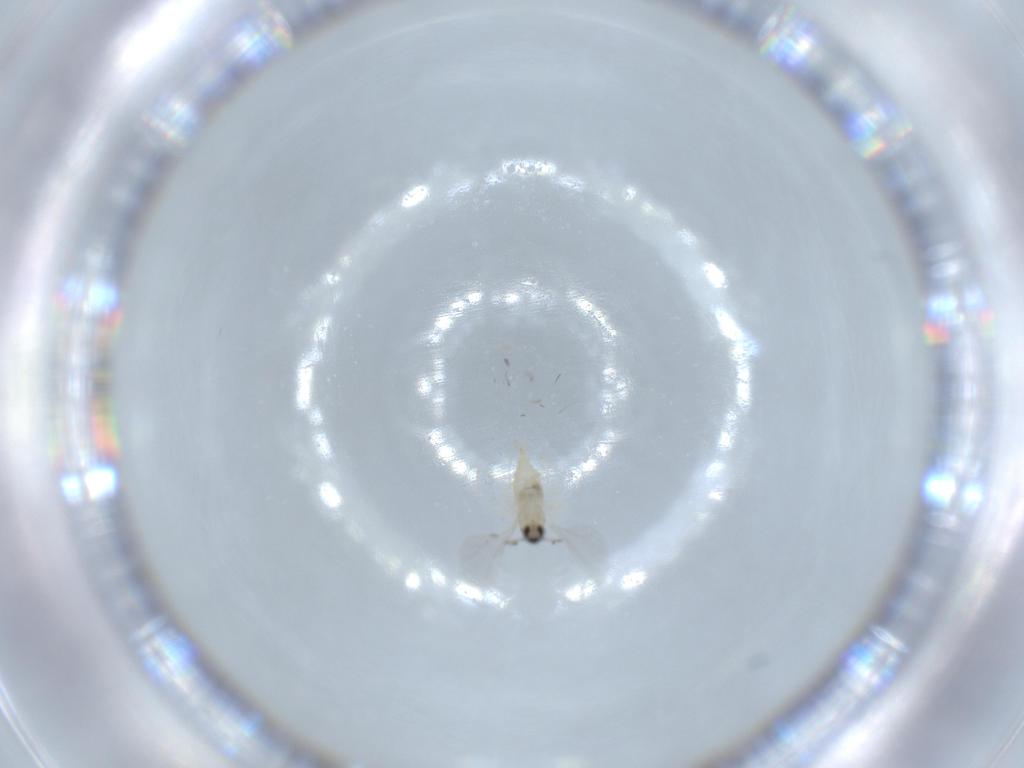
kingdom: Animalia
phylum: Arthropoda
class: Insecta
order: Diptera
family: Cecidomyiidae
